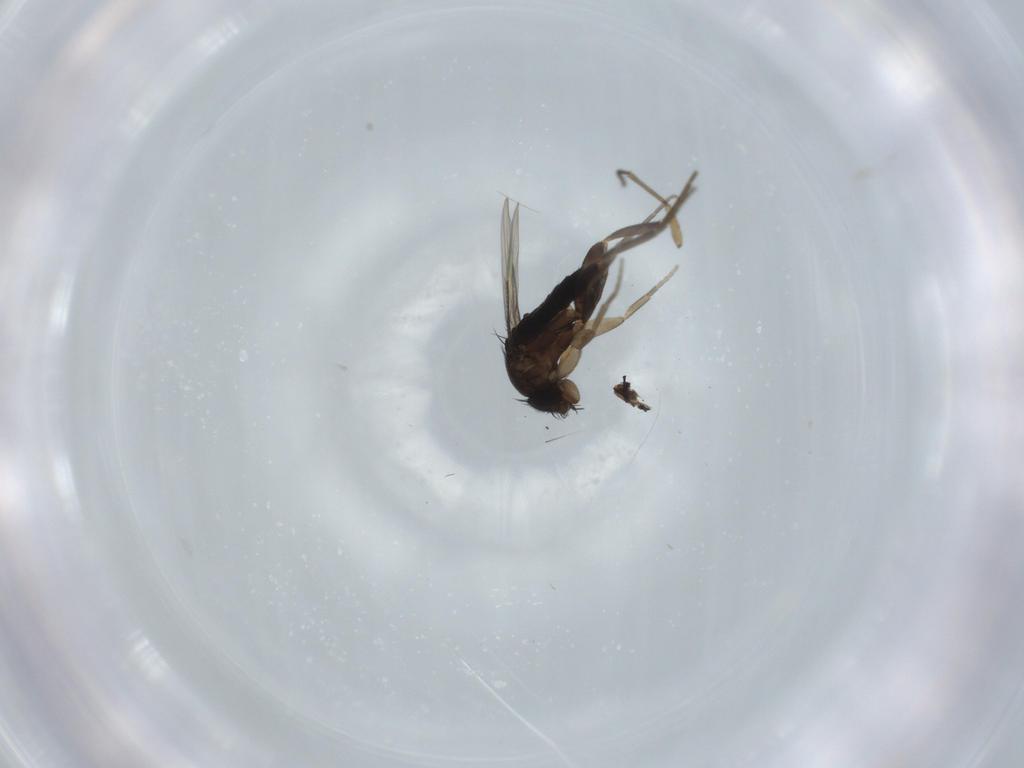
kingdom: Animalia
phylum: Arthropoda
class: Insecta
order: Diptera
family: Phoridae
